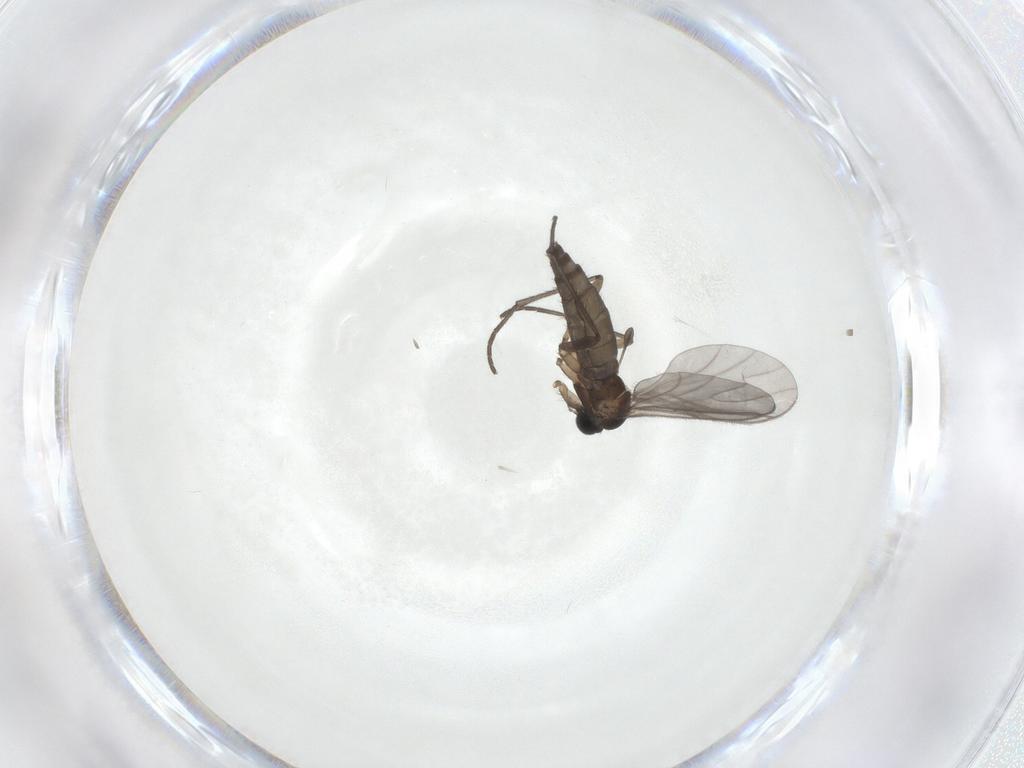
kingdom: Animalia
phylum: Arthropoda
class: Insecta
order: Diptera
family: Sciaridae
